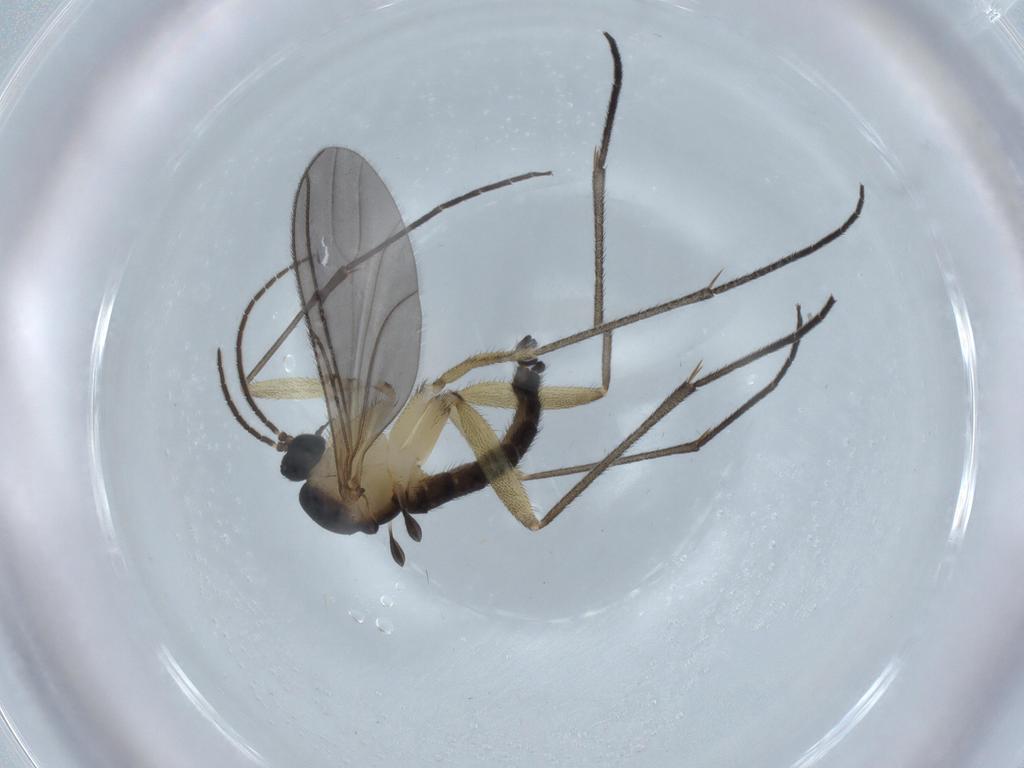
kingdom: Animalia
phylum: Arthropoda
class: Insecta
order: Diptera
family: Sciaridae
